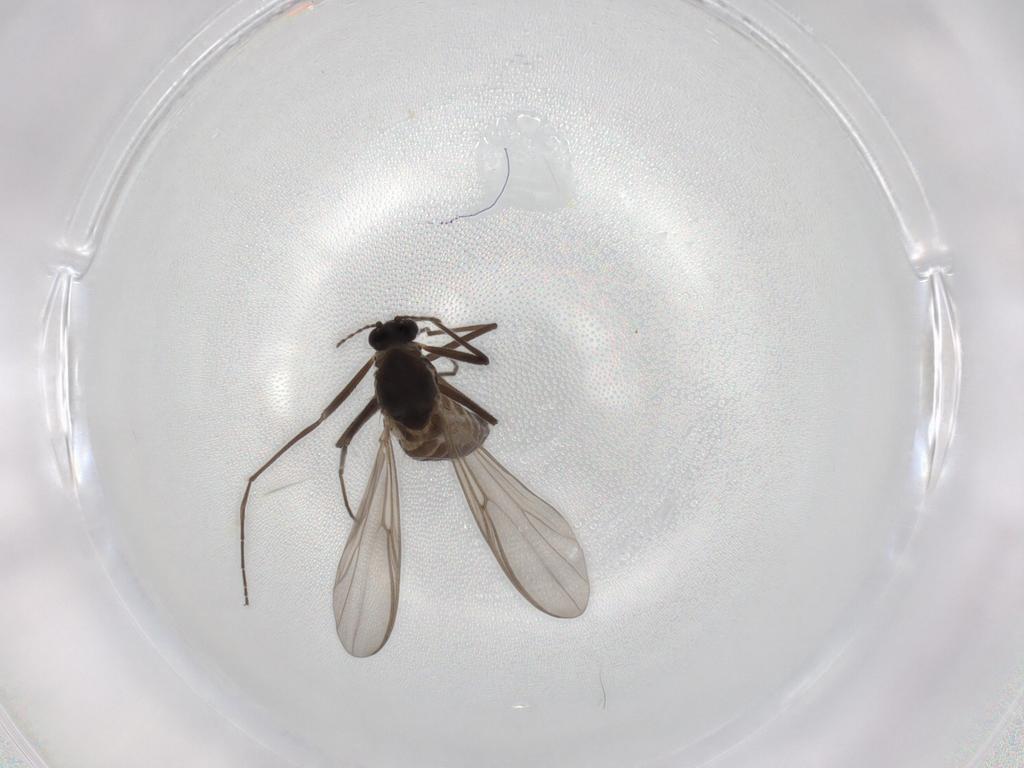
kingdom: Animalia
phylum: Arthropoda
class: Insecta
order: Diptera
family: Chironomidae
